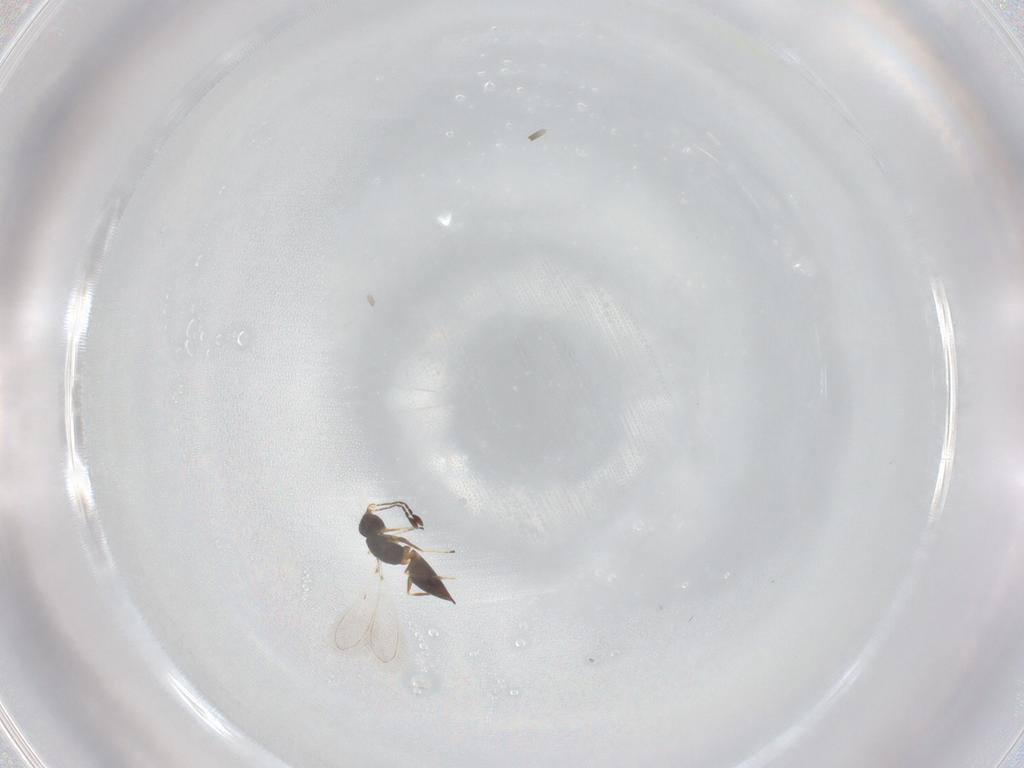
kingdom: Animalia
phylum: Arthropoda
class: Insecta
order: Hymenoptera
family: Mymaridae
